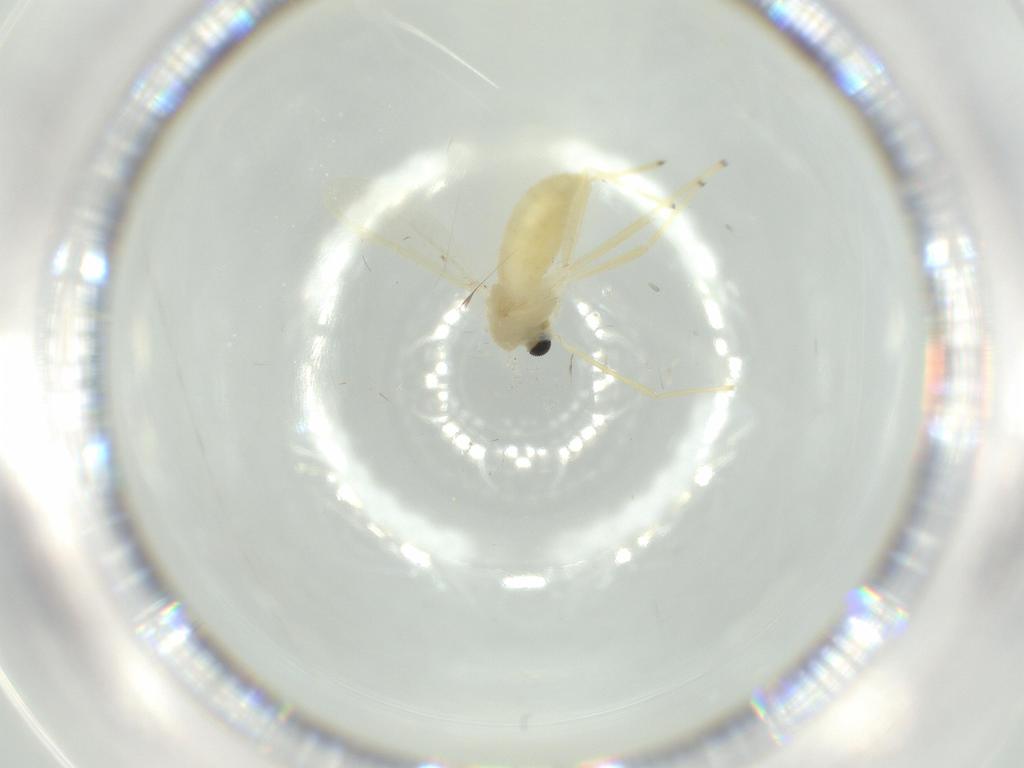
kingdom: Animalia
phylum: Arthropoda
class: Insecta
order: Diptera
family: Chironomidae
